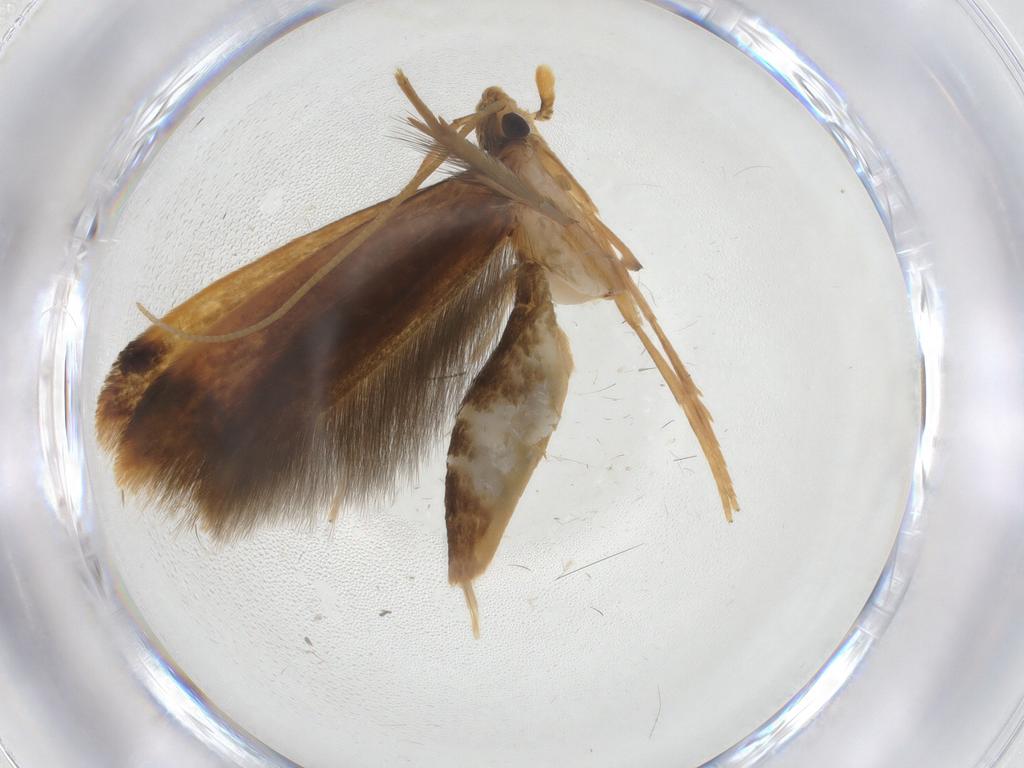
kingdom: Animalia
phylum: Arthropoda
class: Insecta
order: Lepidoptera
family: Tineidae
